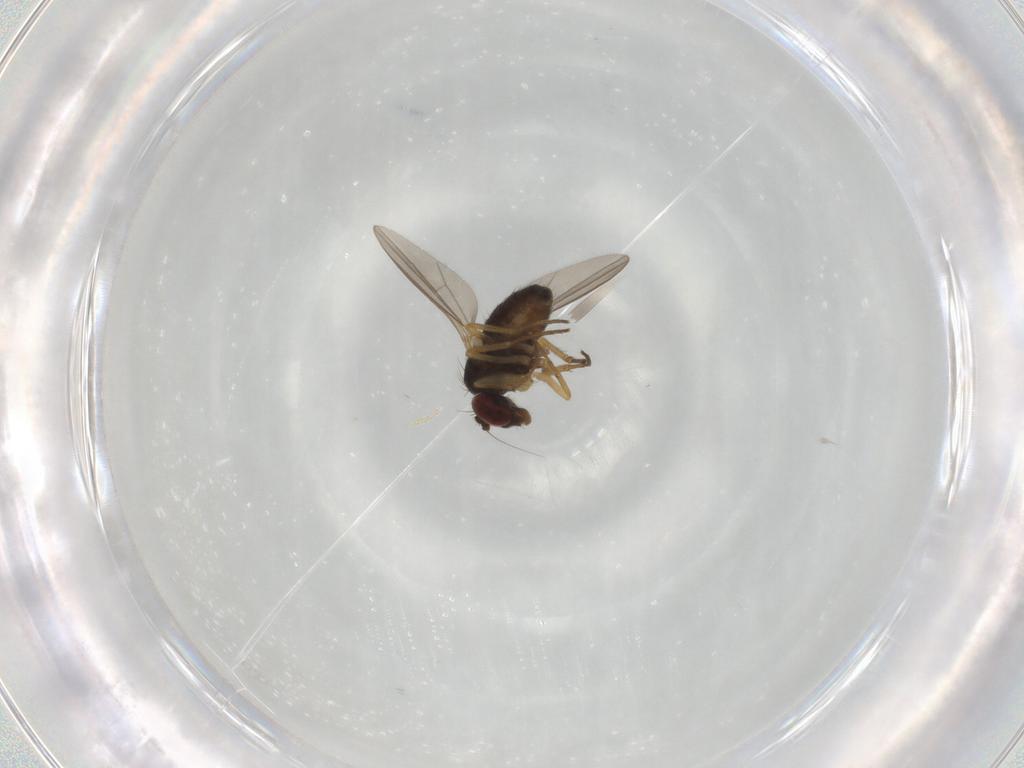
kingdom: Animalia
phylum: Arthropoda
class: Insecta
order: Diptera
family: Dolichopodidae
